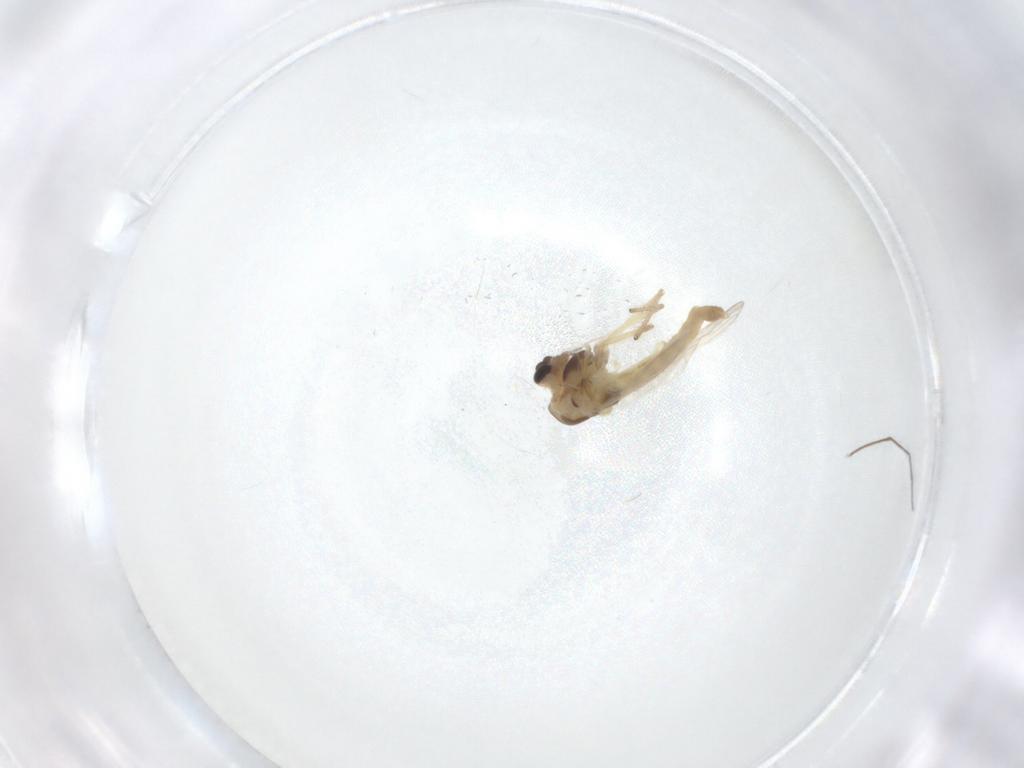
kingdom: Animalia
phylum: Arthropoda
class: Insecta
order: Diptera
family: Chironomidae
